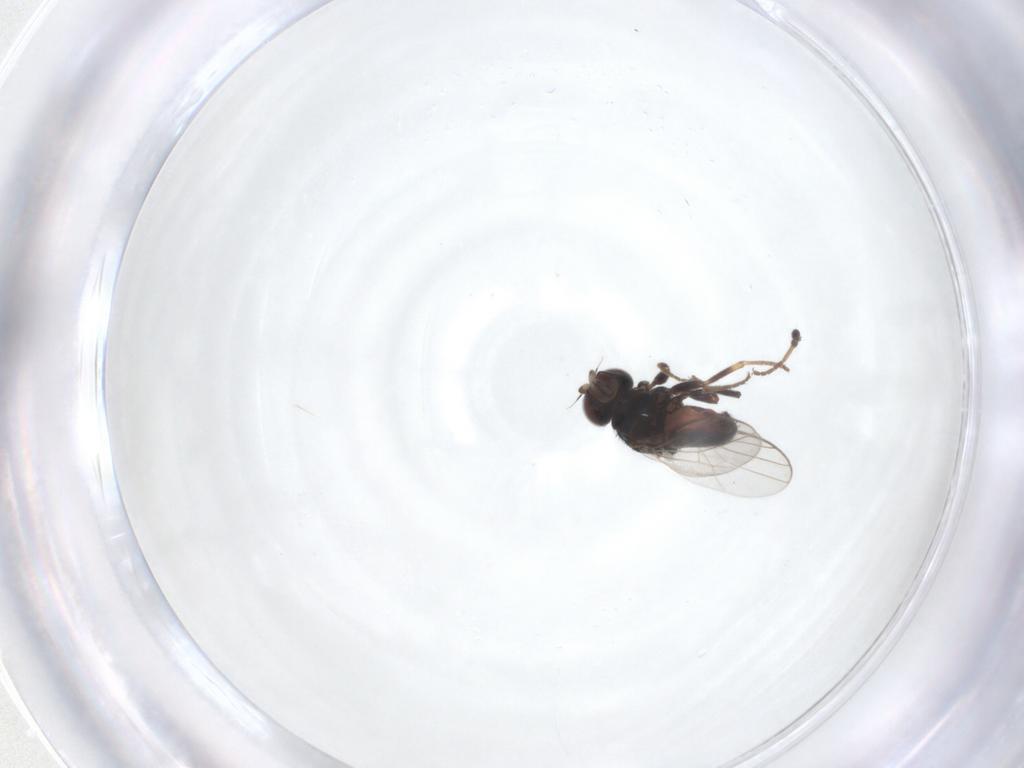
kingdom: Animalia
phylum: Arthropoda
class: Insecta
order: Diptera
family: Chloropidae
